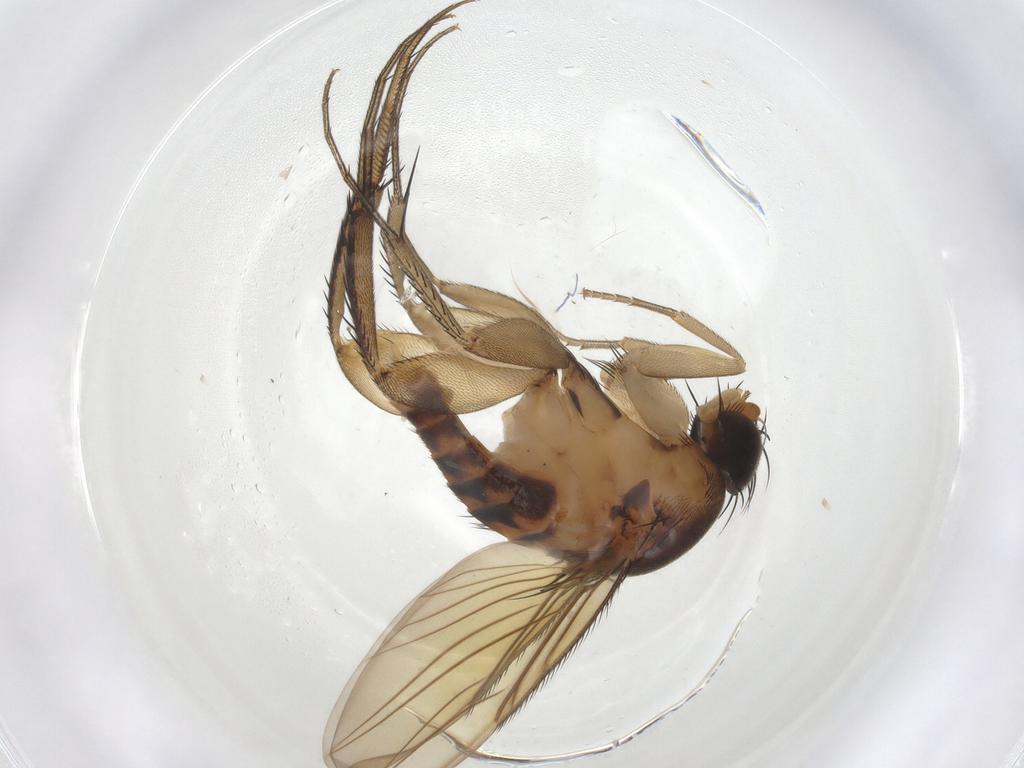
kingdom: Animalia
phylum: Arthropoda
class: Insecta
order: Diptera
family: Phoridae
